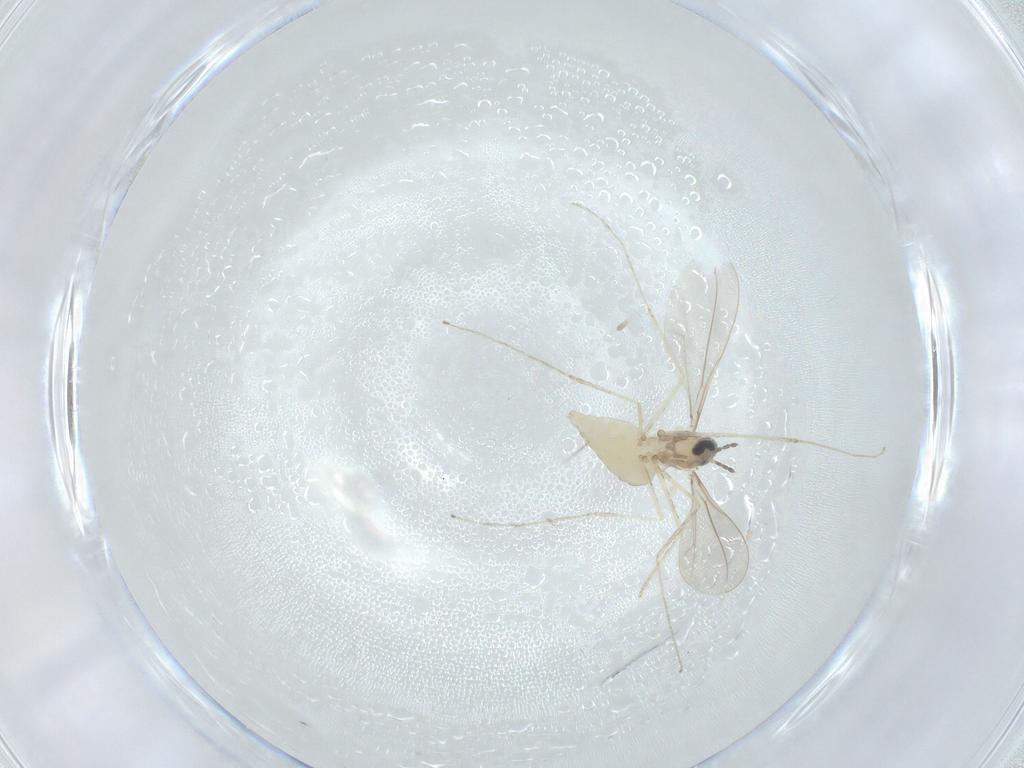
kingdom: Animalia
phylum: Arthropoda
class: Insecta
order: Diptera
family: Cecidomyiidae
